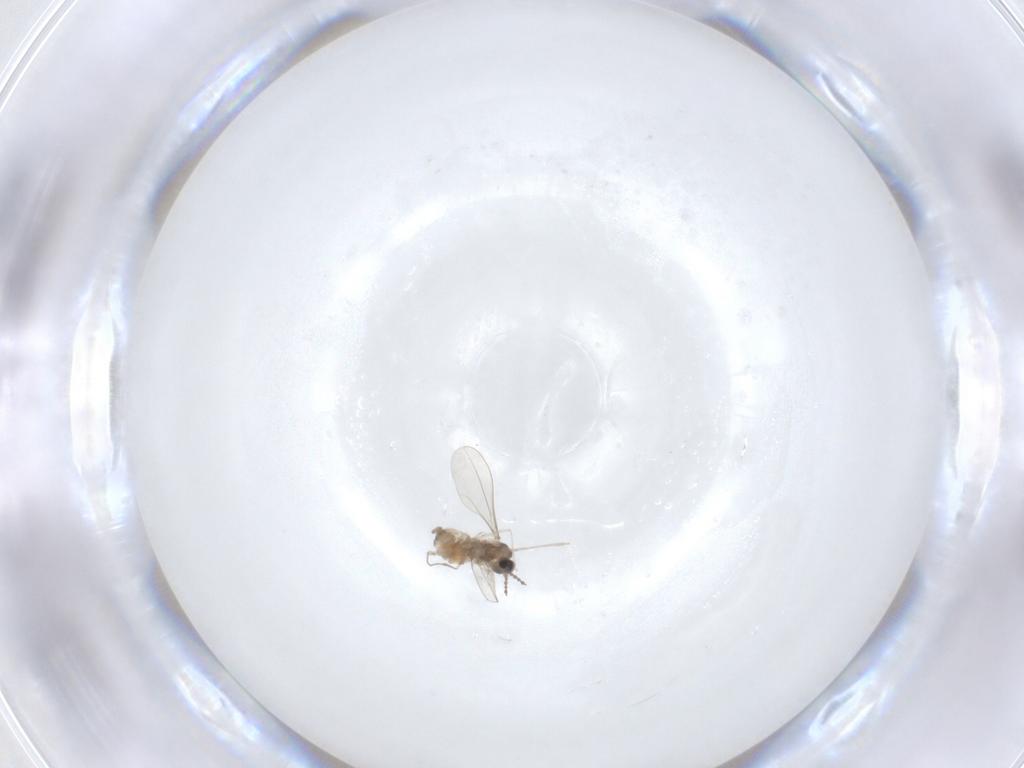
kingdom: Animalia
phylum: Arthropoda
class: Insecta
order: Diptera
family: Cecidomyiidae
